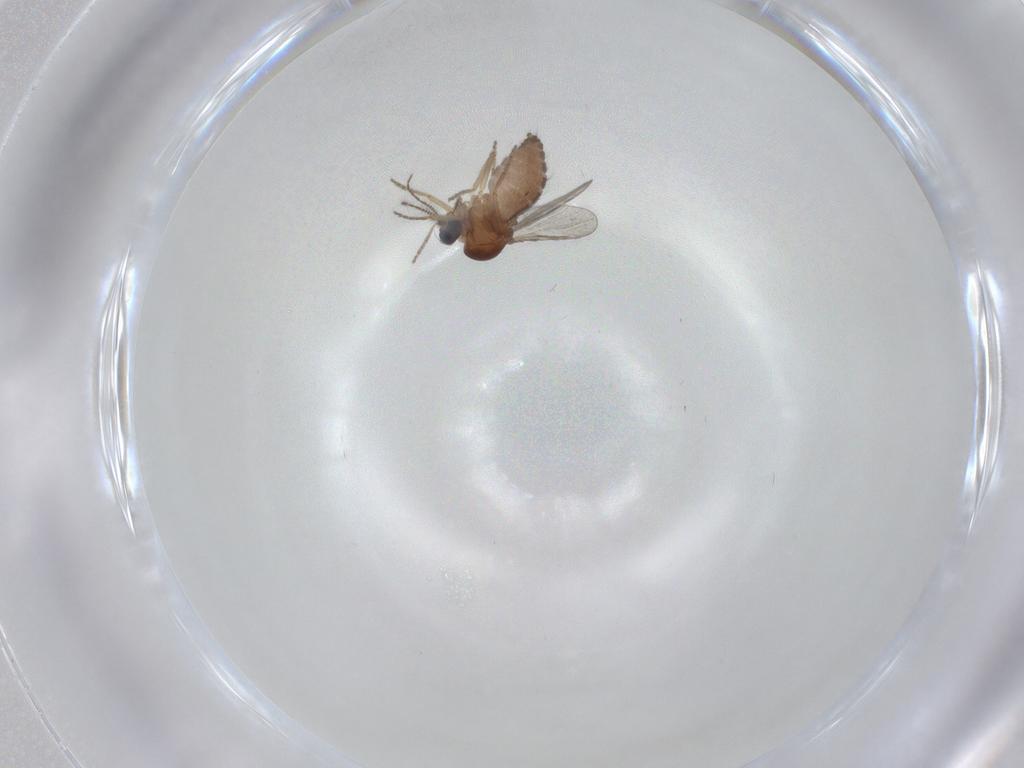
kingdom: Animalia
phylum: Arthropoda
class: Insecta
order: Diptera
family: Ceratopogonidae
